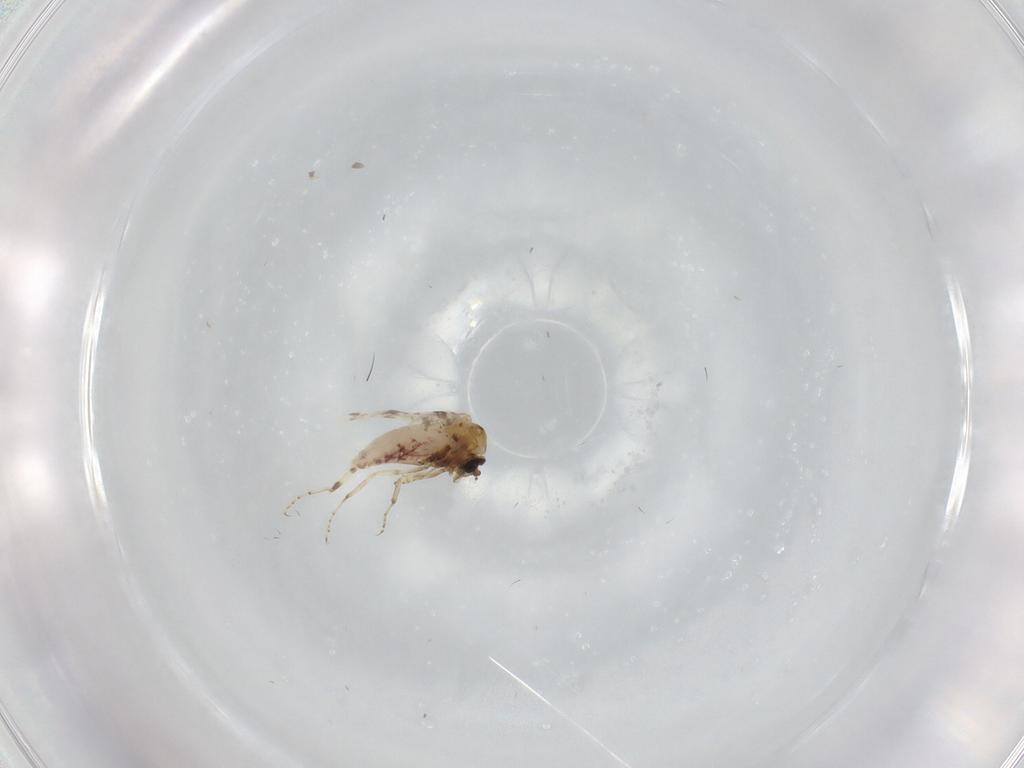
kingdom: Animalia
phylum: Arthropoda
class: Insecta
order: Diptera
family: Ceratopogonidae
